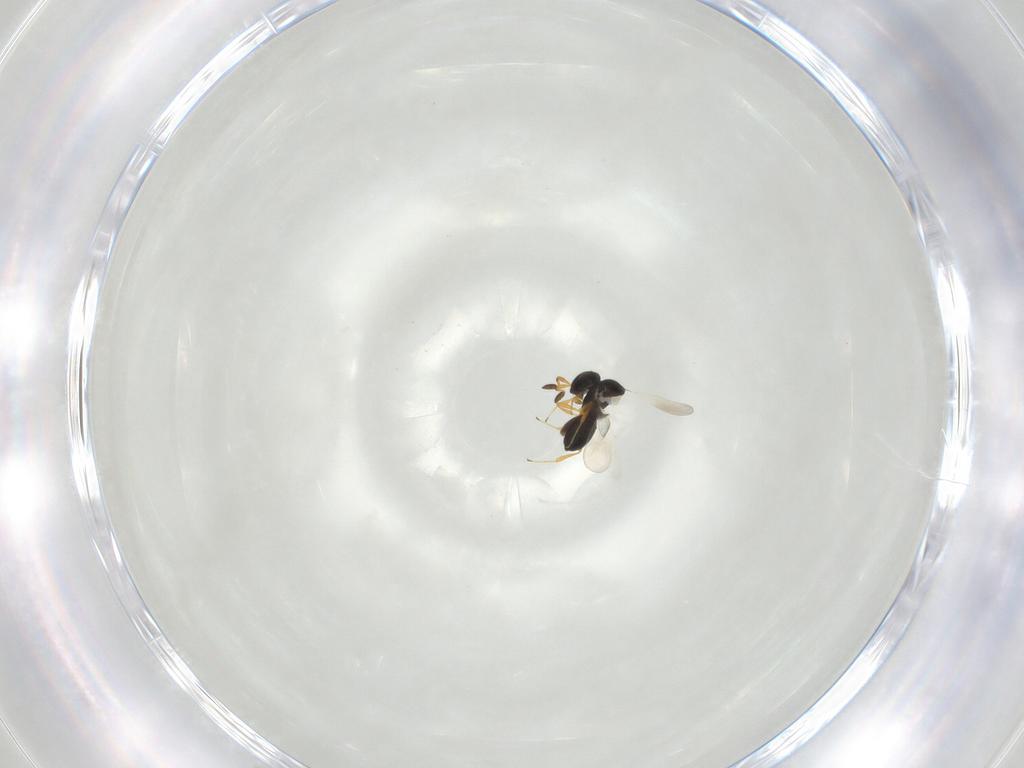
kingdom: Animalia
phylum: Arthropoda
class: Insecta
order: Hymenoptera
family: Platygastridae
